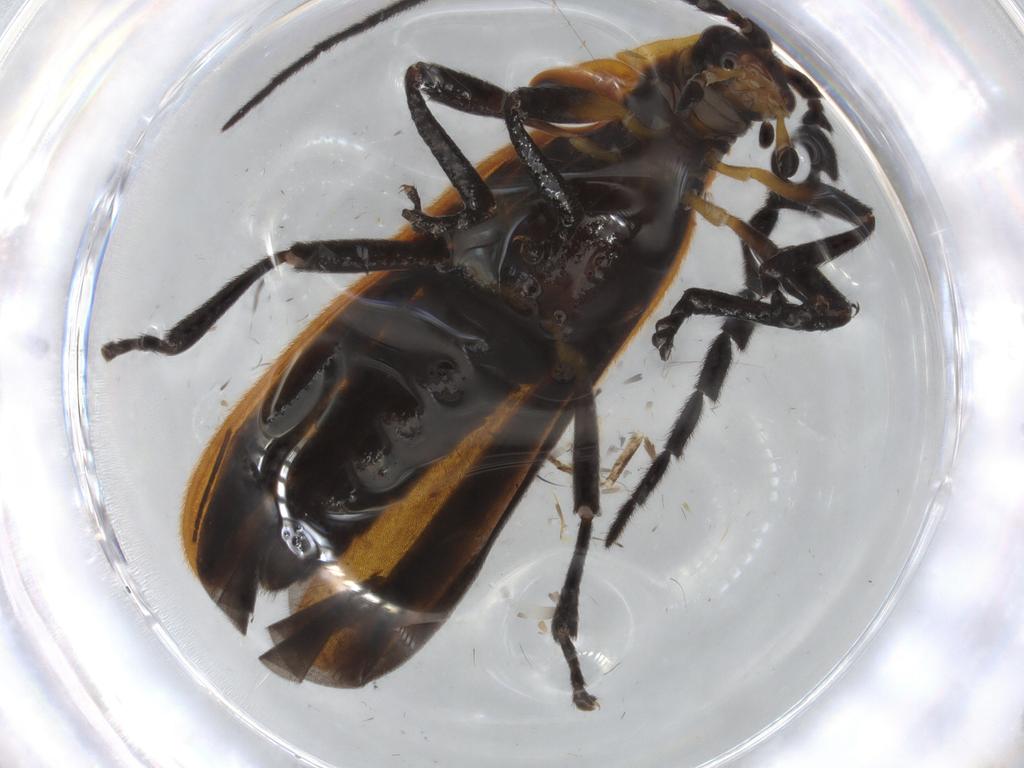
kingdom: Animalia
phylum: Arthropoda
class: Insecta
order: Coleoptera
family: Lycidae
